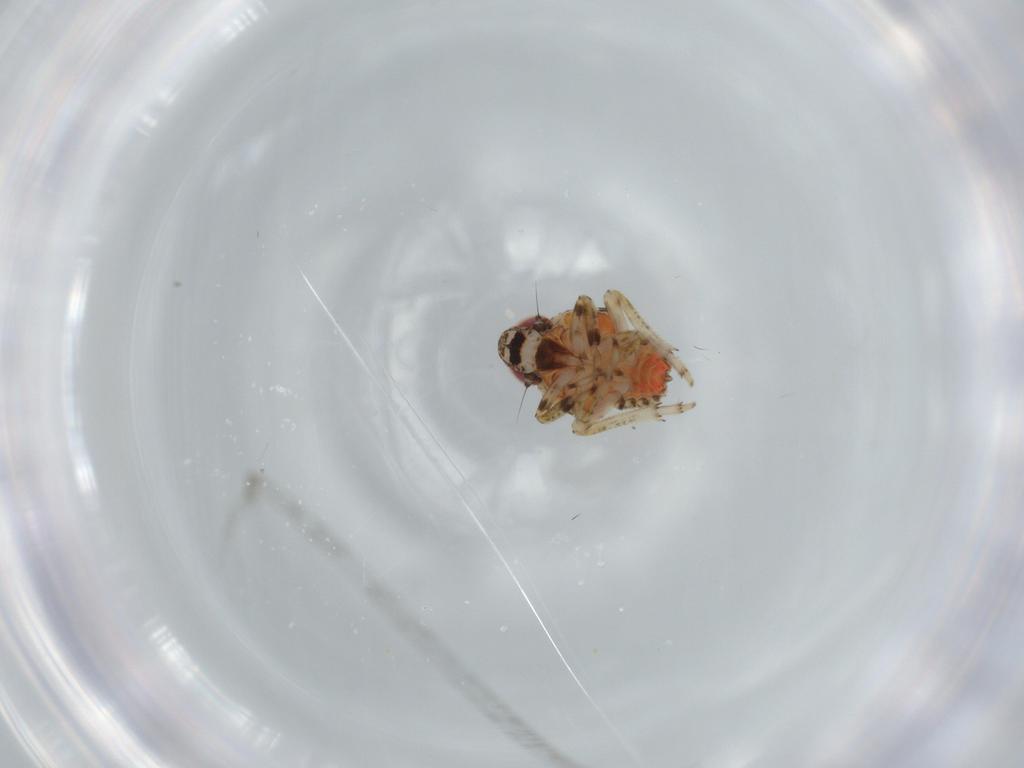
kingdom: Animalia
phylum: Arthropoda
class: Insecta
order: Hemiptera
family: Issidae
